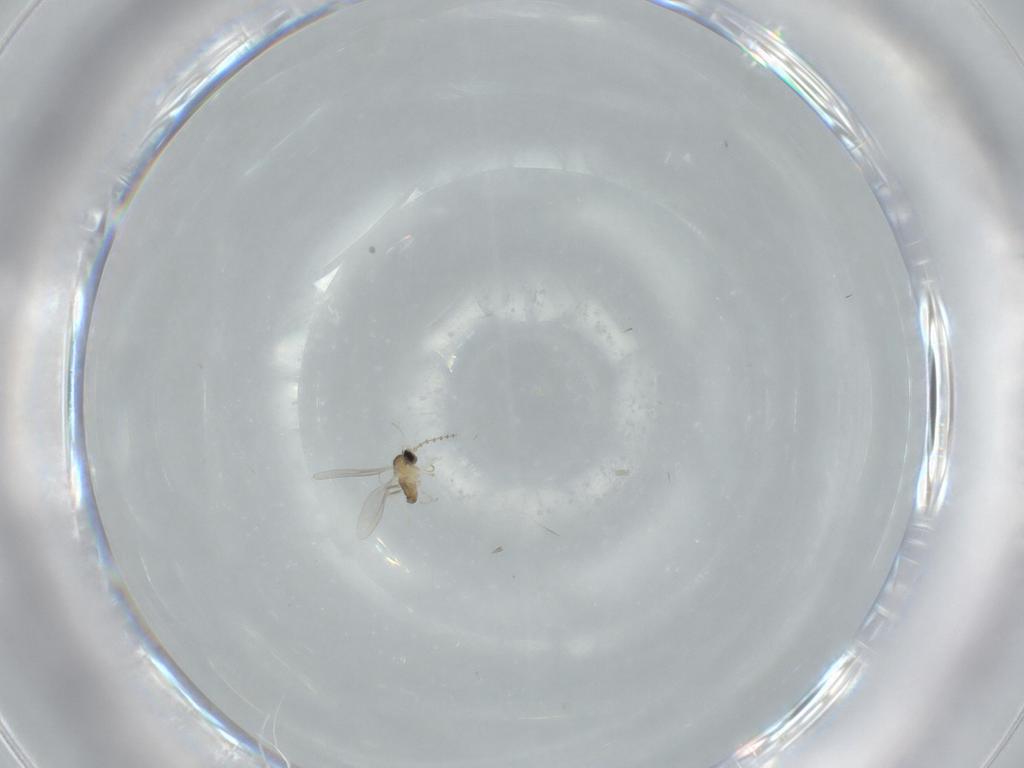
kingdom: Animalia
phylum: Arthropoda
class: Insecta
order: Diptera
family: Cecidomyiidae
